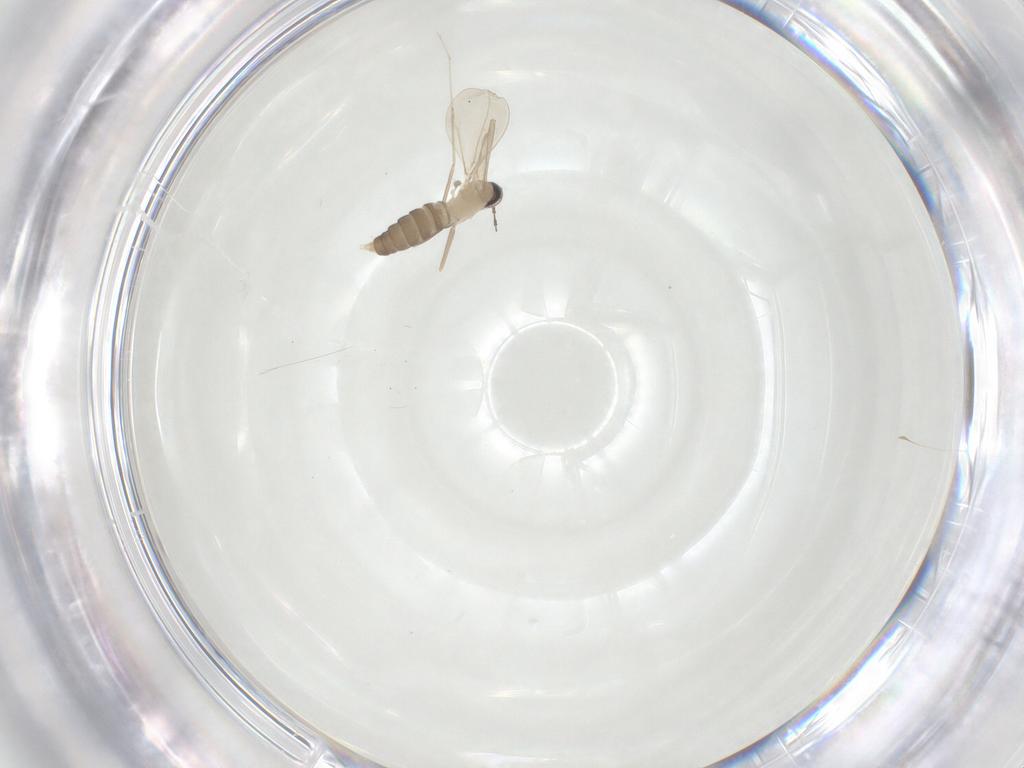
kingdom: Animalia
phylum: Arthropoda
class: Insecta
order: Diptera
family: Cecidomyiidae
